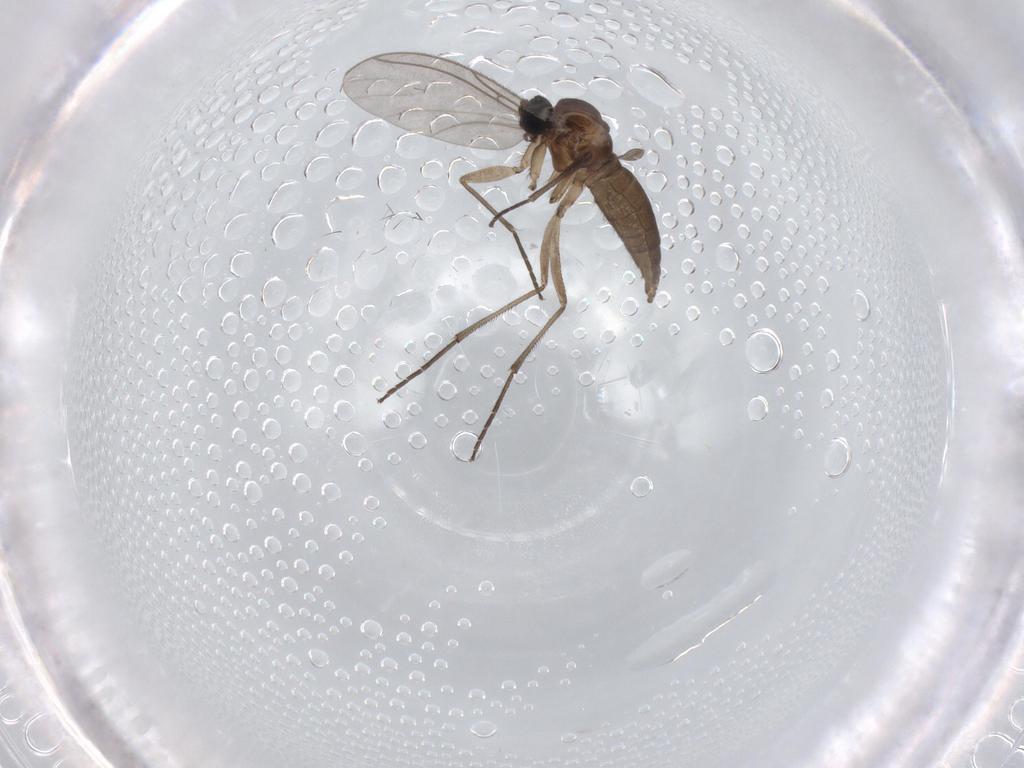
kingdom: Animalia
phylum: Arthropoda
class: Insecta
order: Diptera
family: Sciaridae
